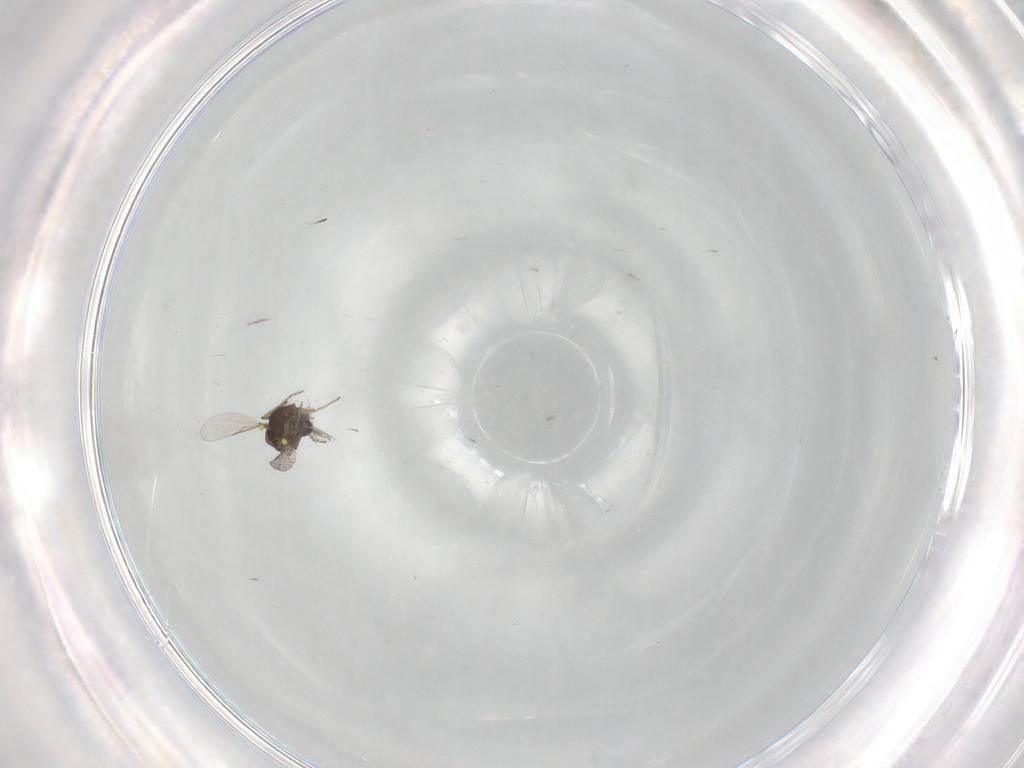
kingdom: Animalia
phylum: Arthropoda
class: Insecta
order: Diptera
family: Ceratopogonidae
